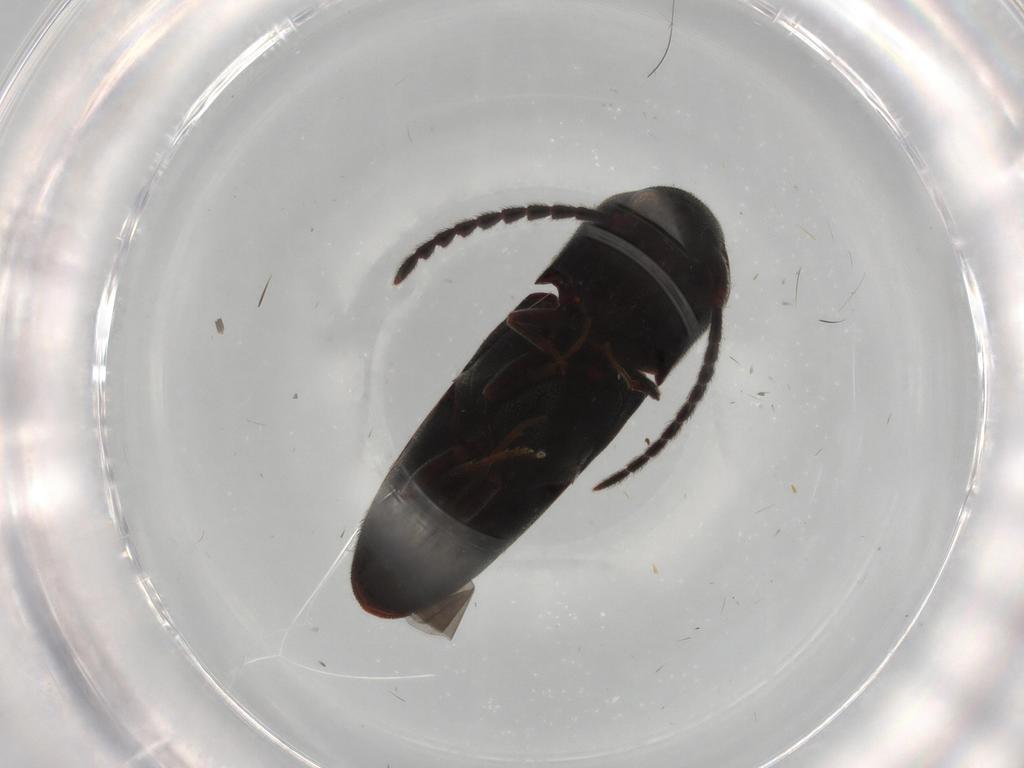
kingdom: Animalia
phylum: Arthropoda
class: Insecta
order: Coleoptera
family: Eucnemidae
